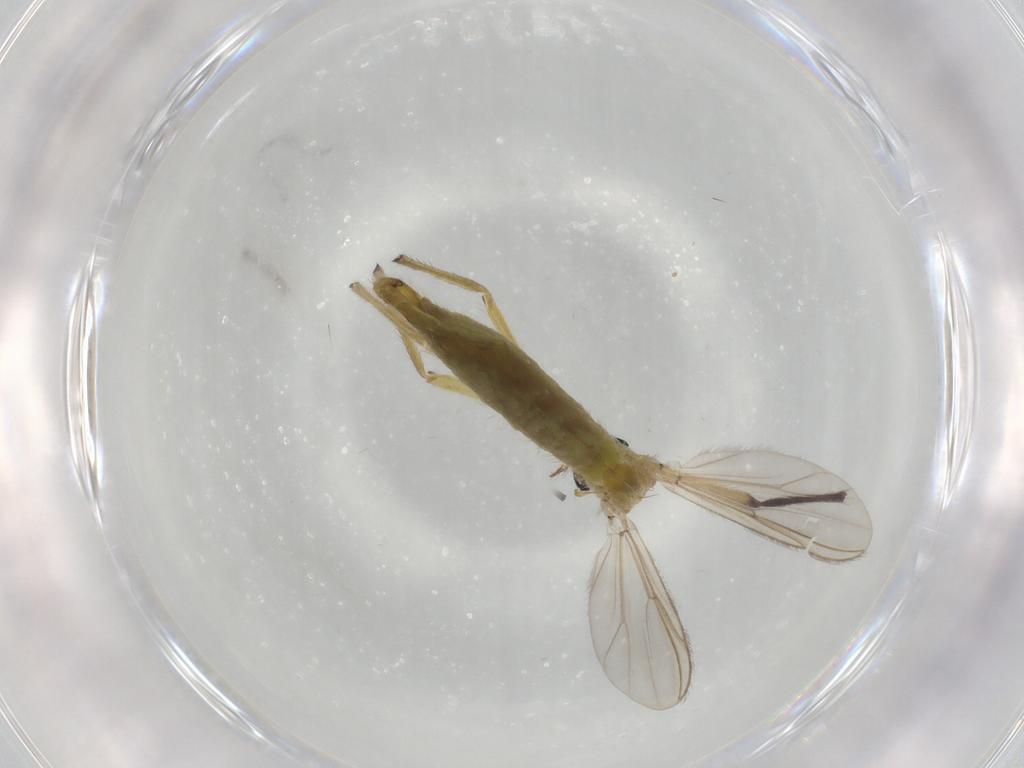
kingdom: Animalia
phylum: Arthropoda
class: Insecta
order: Diptera
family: Chironomidae
